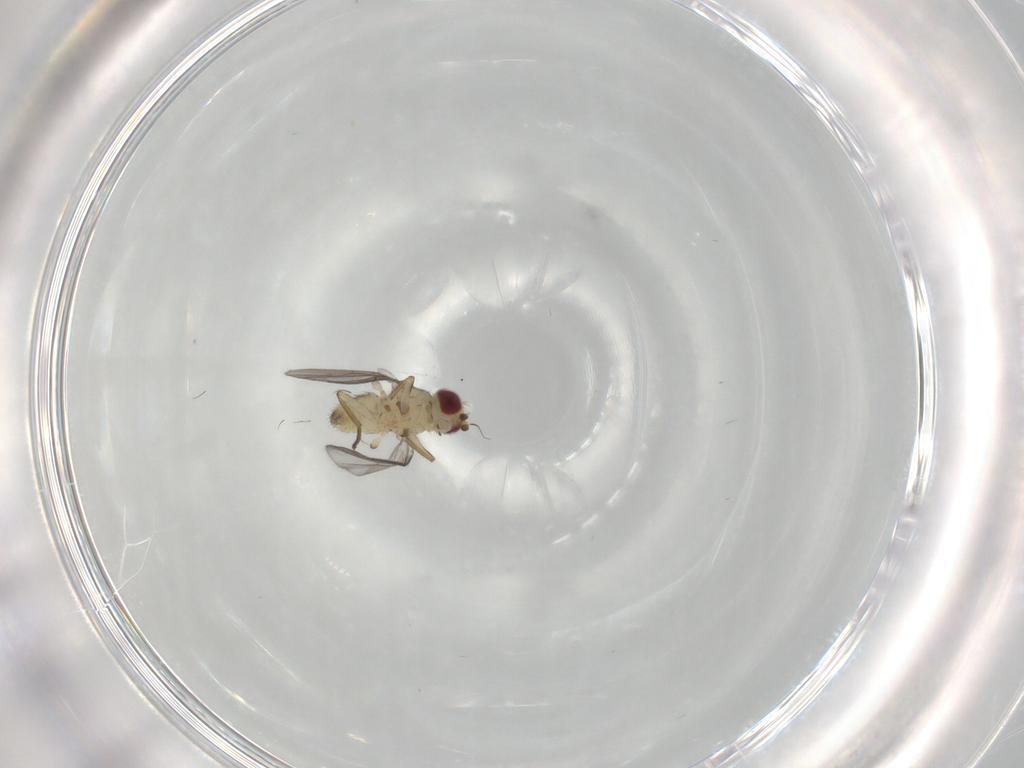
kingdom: Animalia
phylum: Arthropoda
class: Insecta
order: Diptera
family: Agromyzidae
